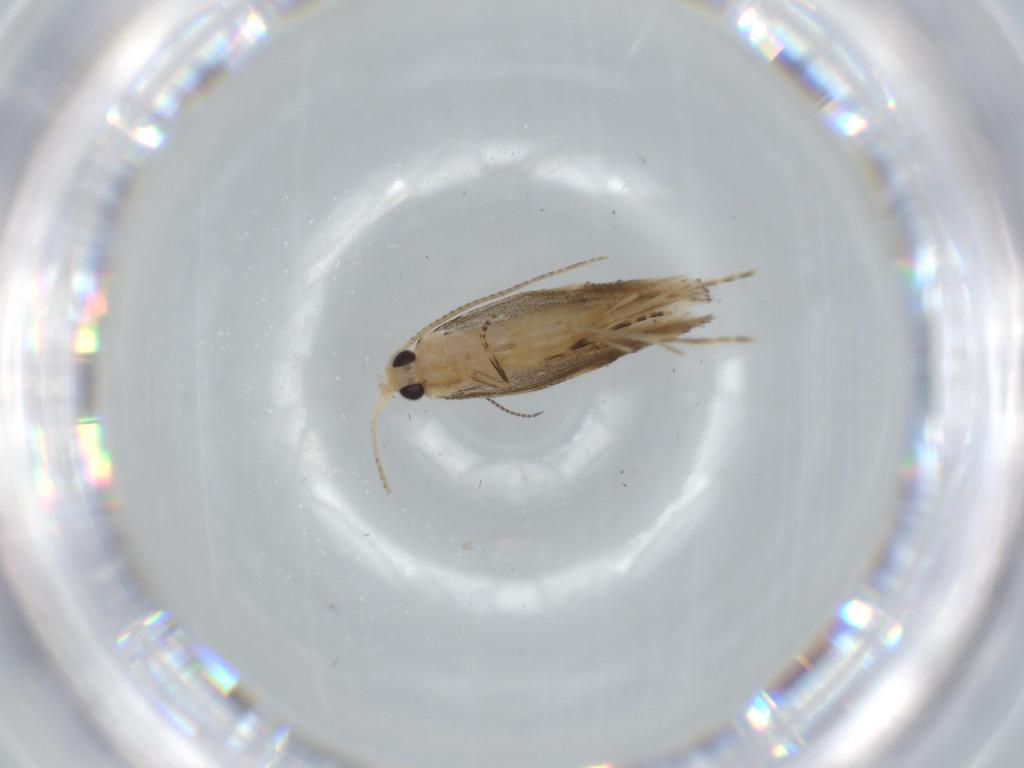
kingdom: Animalia
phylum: Arthropoda
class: Insecta
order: Lepidoptera
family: Bucculatricidae
